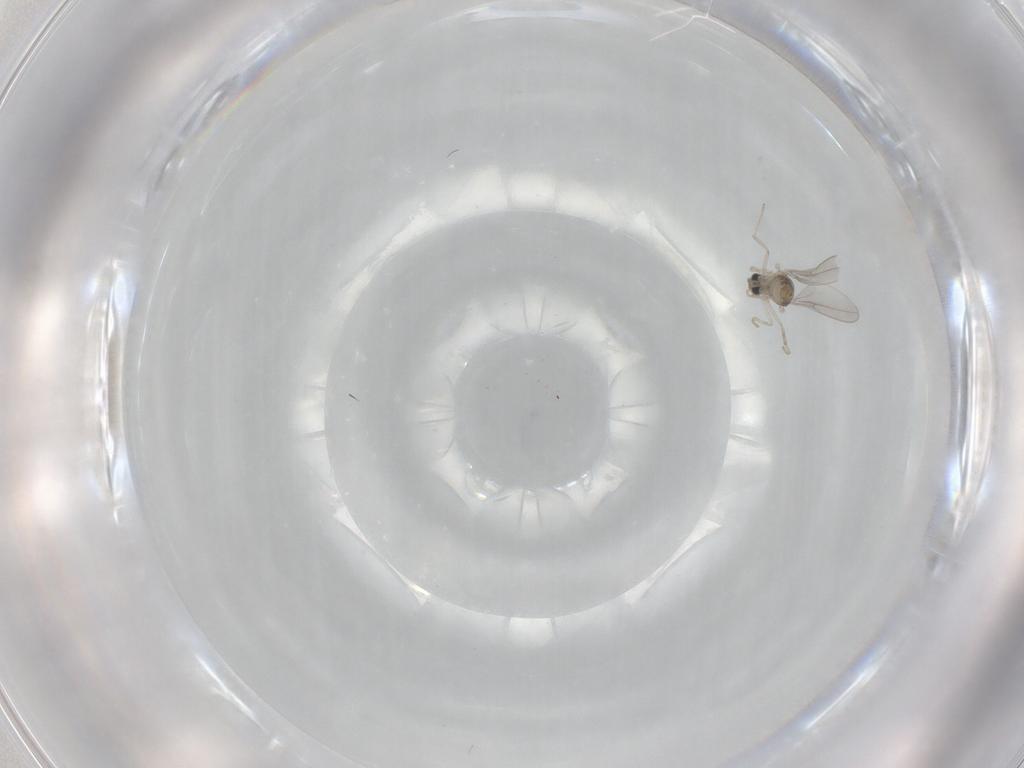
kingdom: Animalia
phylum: Arthropoda
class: Insecta
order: Diptera
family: Cecidomyiidae
